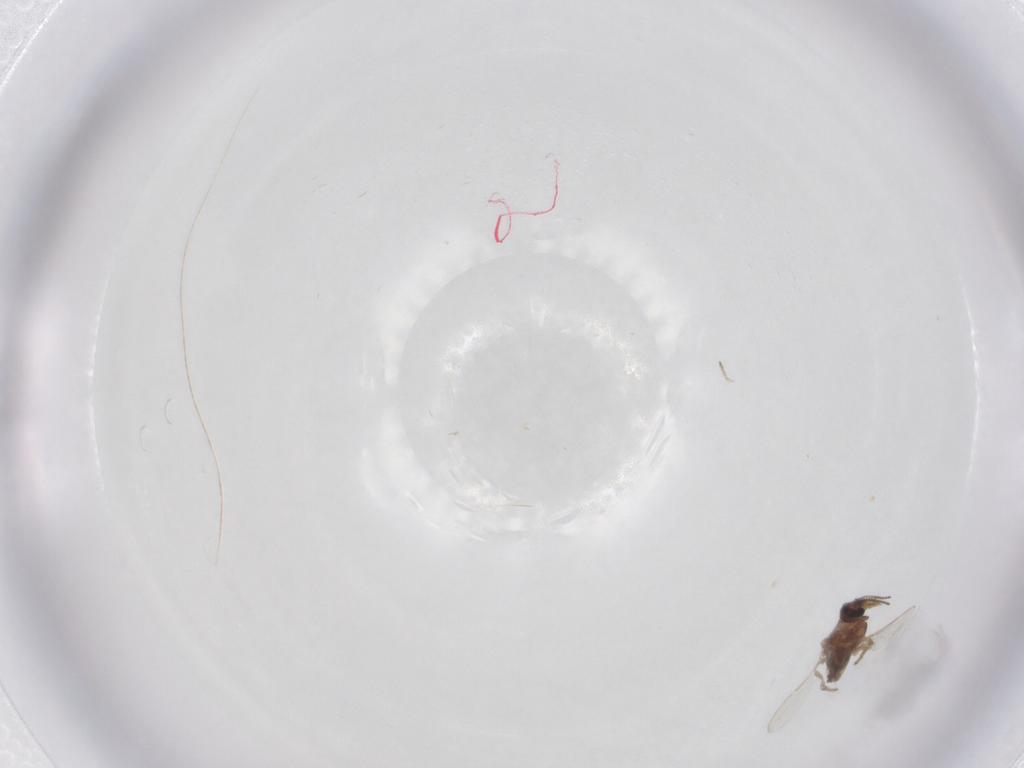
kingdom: Animalia
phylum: Arthropoda
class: Insecta
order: Diptera
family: Ceratopogonidae
